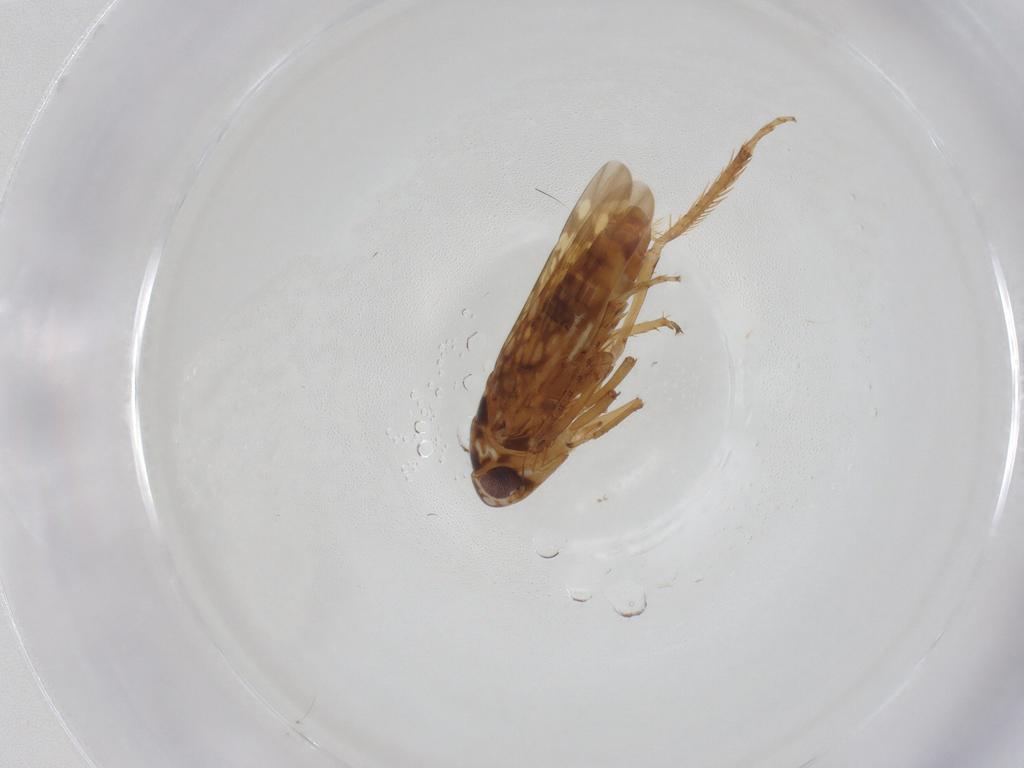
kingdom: Animalia
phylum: Arthropoda
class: Insecta
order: Hemiptera
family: Cicadellidae
